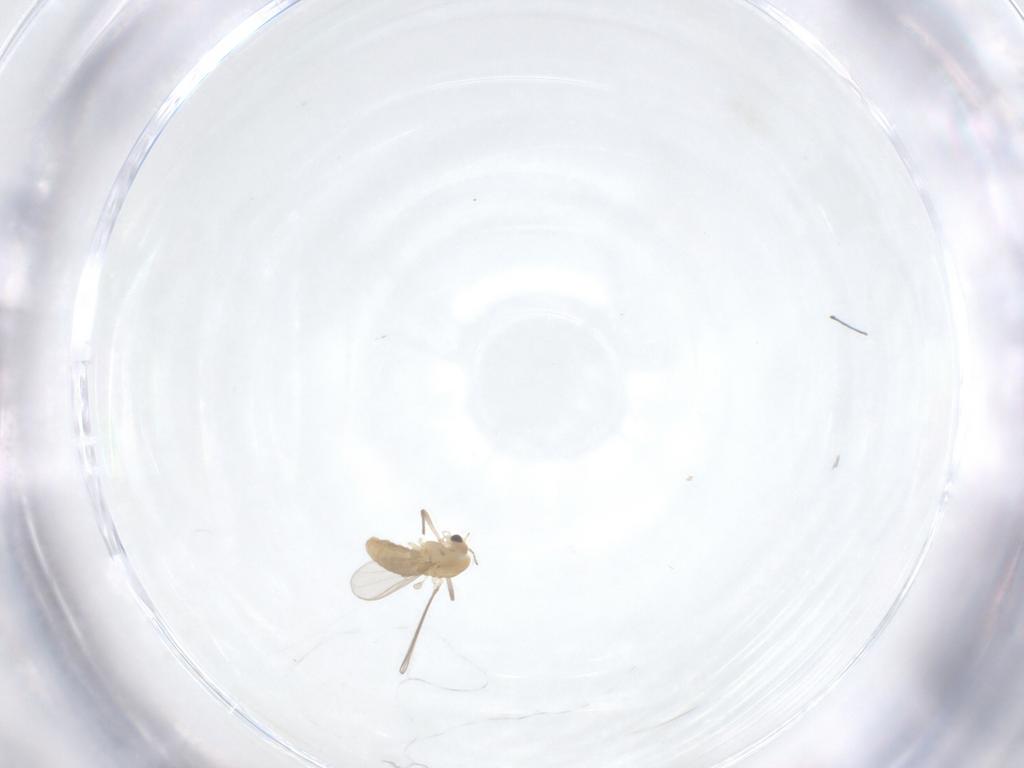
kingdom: Animalia
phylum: Arthropoda
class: Insecta
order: Diptera
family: Chironomidae
